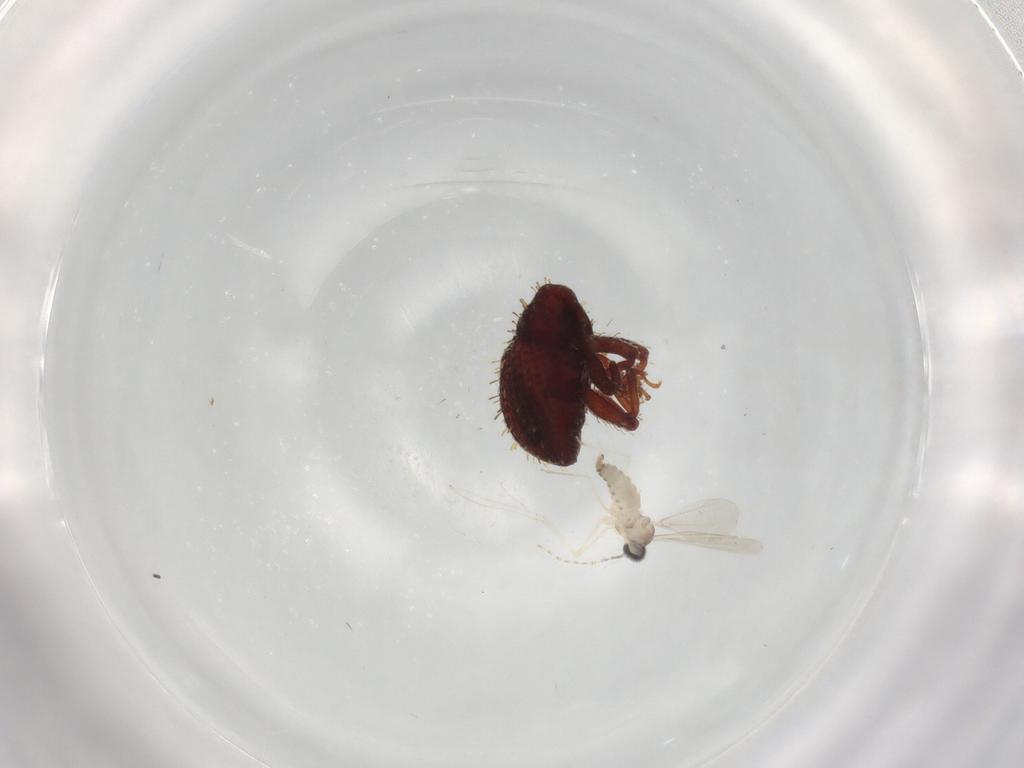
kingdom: Animalia
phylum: Arthropoda
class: Insecta
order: Diptera
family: Cecidomyiidae
